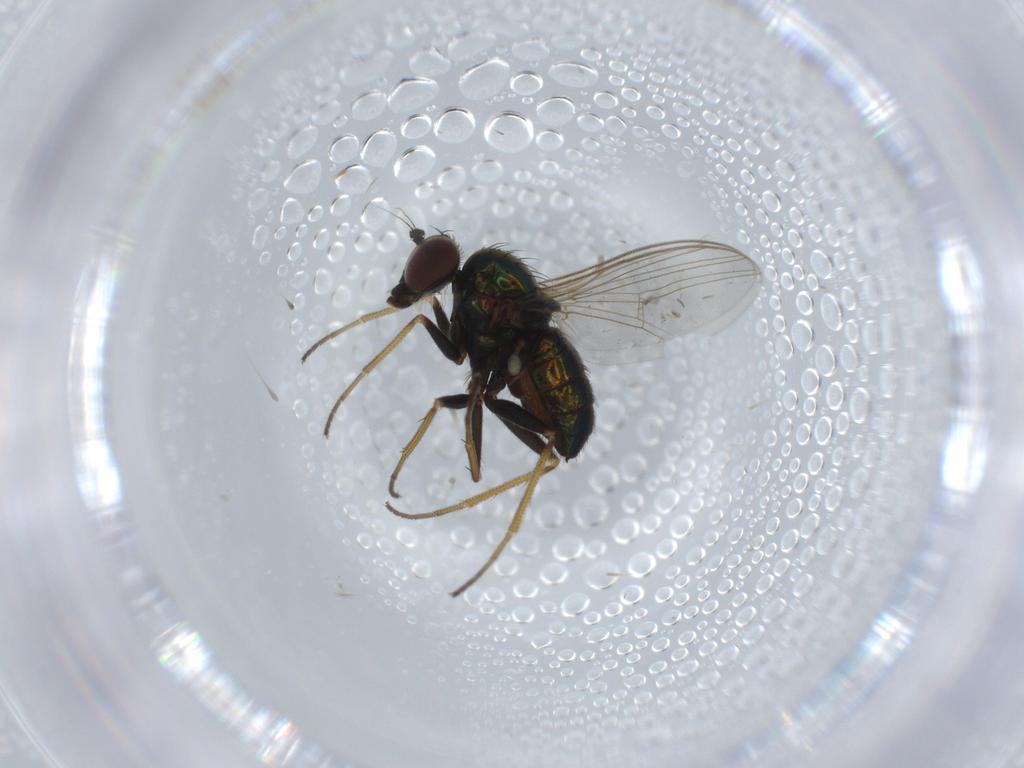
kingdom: Animalia
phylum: Arthropoda
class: Insecta
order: Diptera
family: Dolichopodidae
